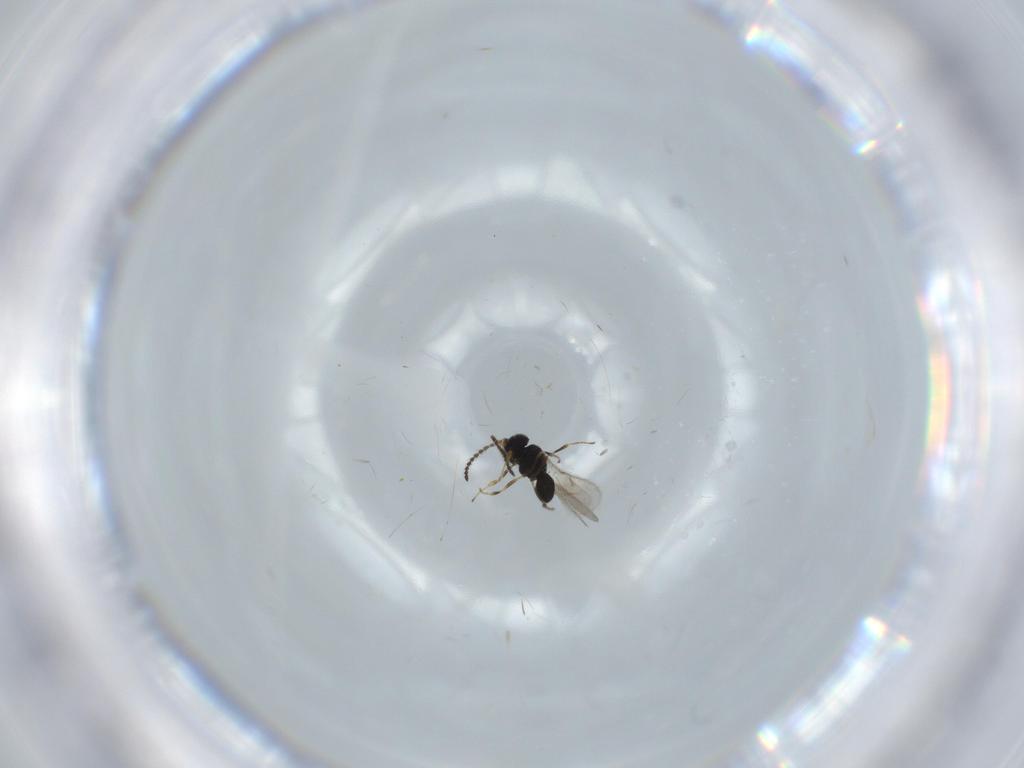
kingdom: Animalia
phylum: Arthropoda
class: Insecta
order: Hymenoptera
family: Scelionidae
